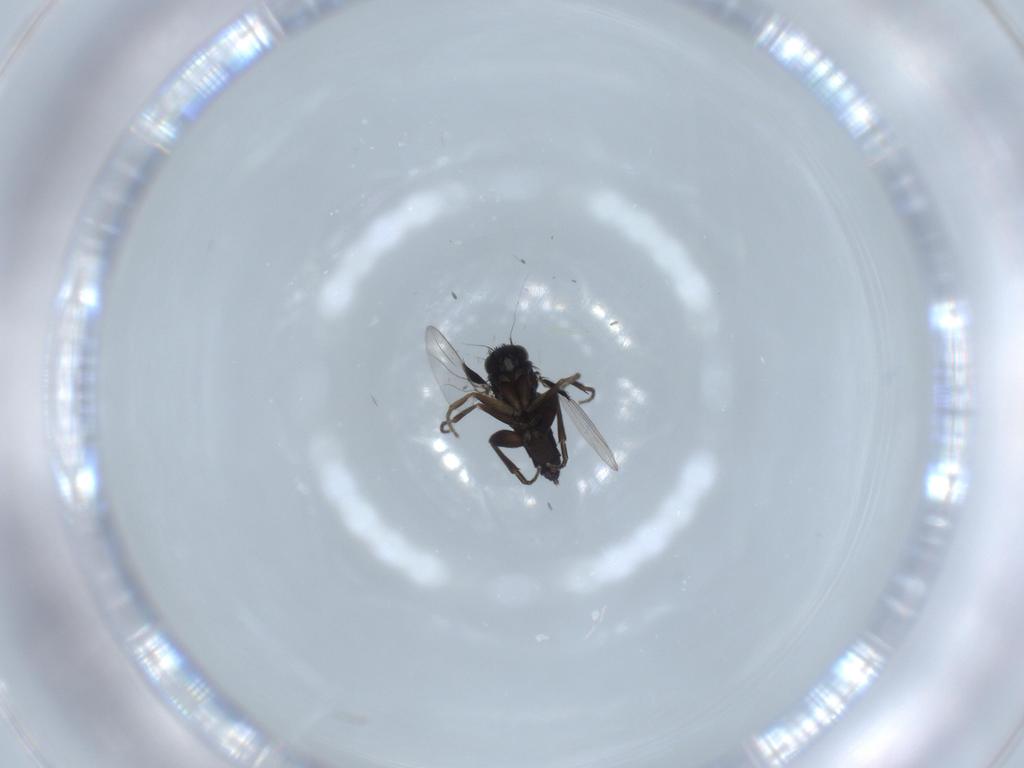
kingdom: Animalia
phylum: Arthropoda
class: Insecta
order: Diptera
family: Phoridae
